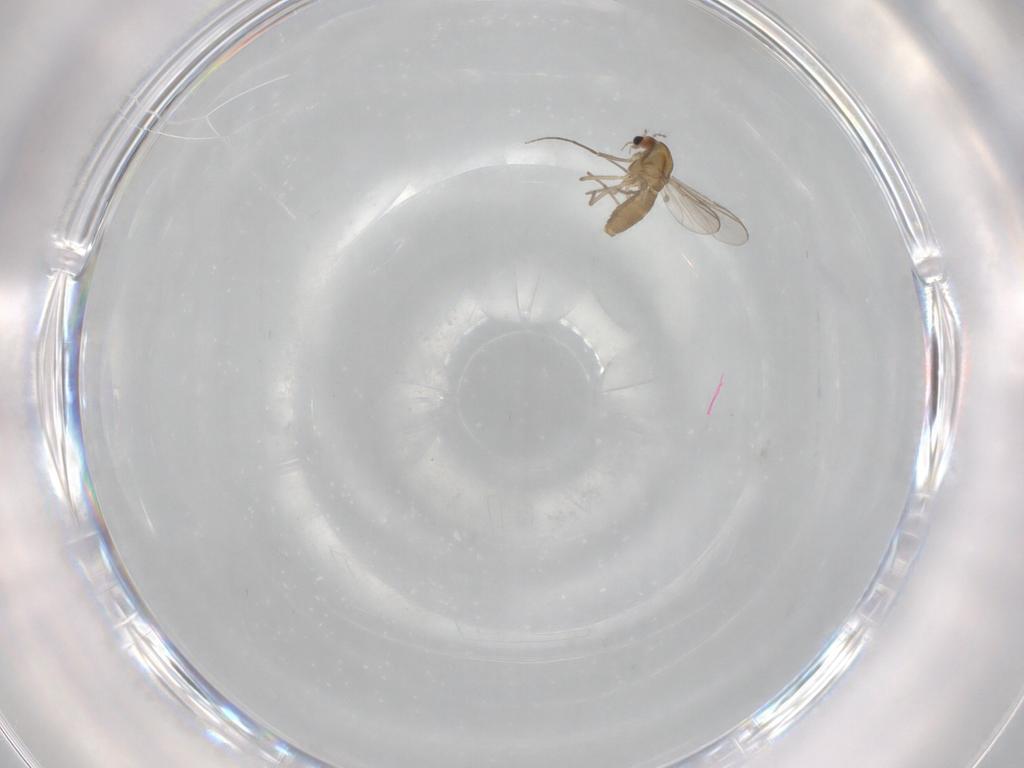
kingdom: Animalia
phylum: Arthropoda
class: Insecta
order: Diptera
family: Chironomidae
